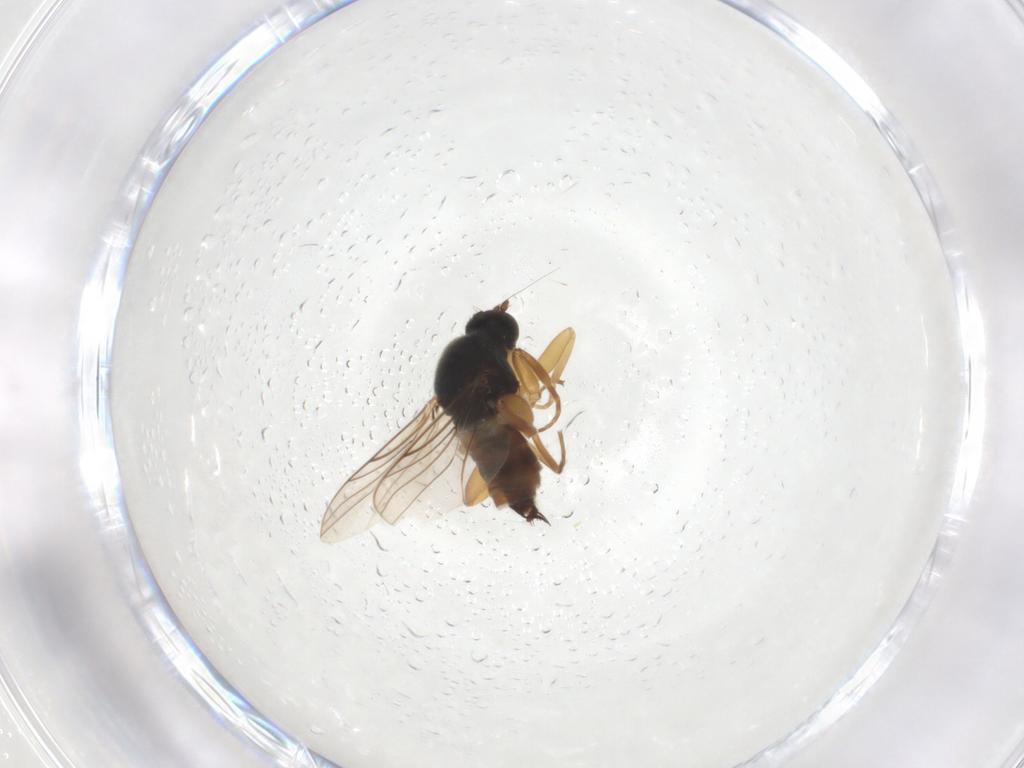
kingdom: Animalia
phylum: Arthropoda
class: Insecta
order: Diptera
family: Hybotidae
